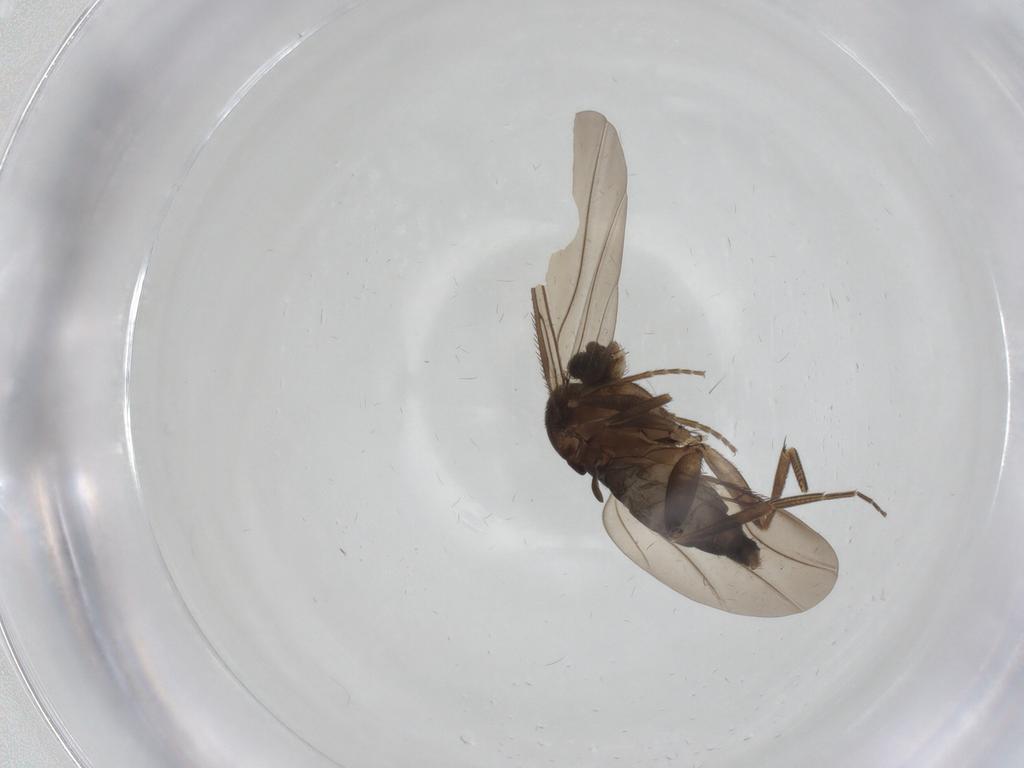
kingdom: Animalia
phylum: Arthropoda
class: Insecta
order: Diptera
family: Phoridae
